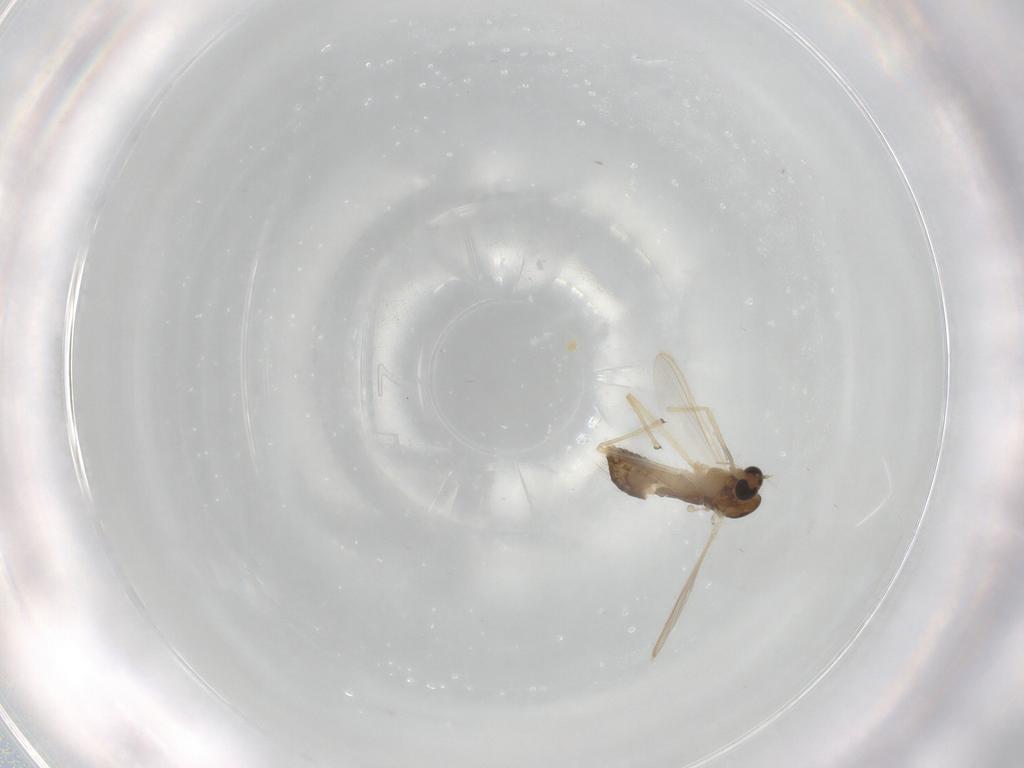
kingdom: Animalia
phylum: Arthropoda
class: Insecta
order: Diptera
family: Chironomidae
